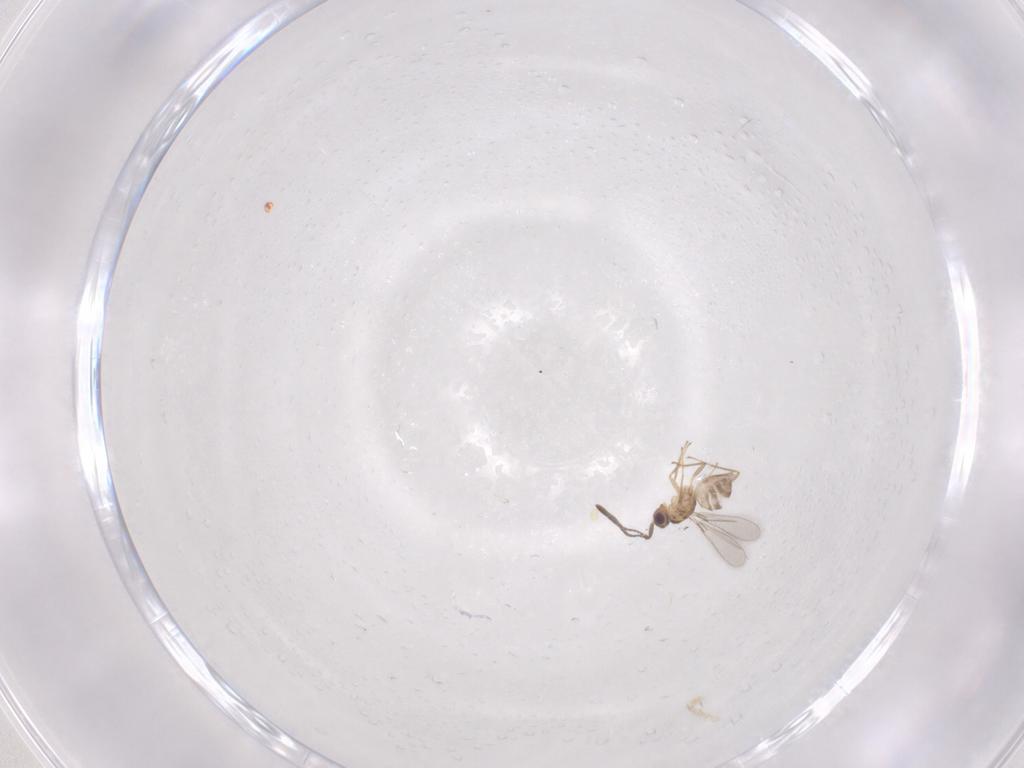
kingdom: Animalia
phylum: Arthropoda
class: Insecta
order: Hymenoptera
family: Mymaridae
